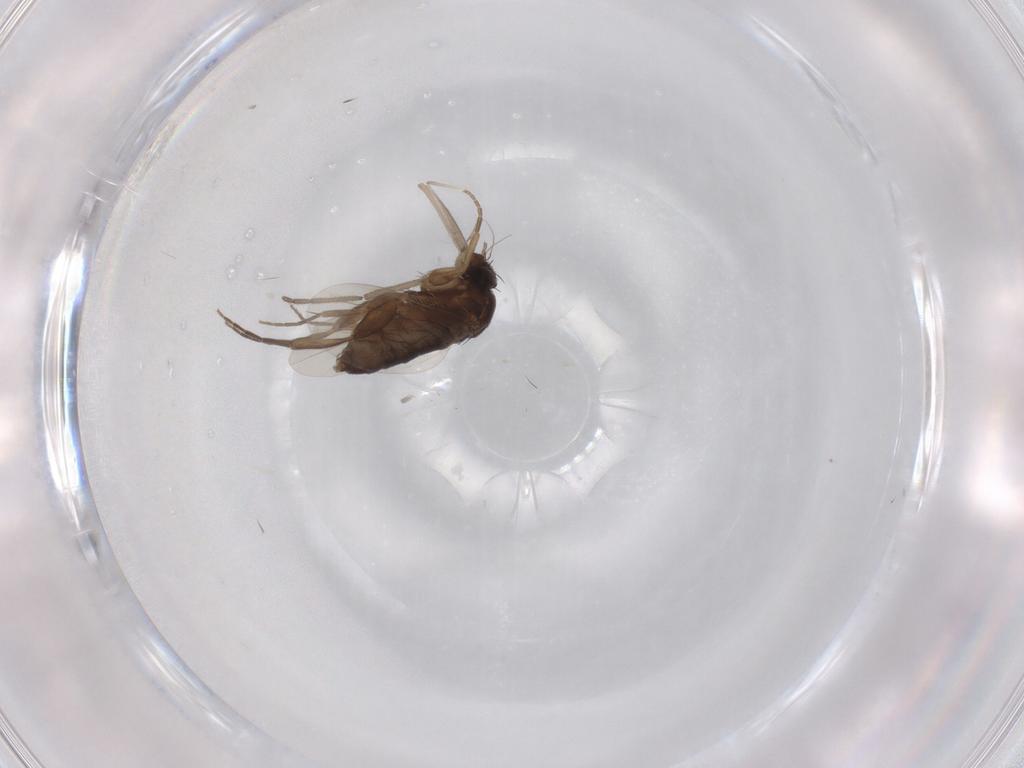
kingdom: Animalia
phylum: Arthropoda
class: Insecta
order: Diptera
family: Phoridae
